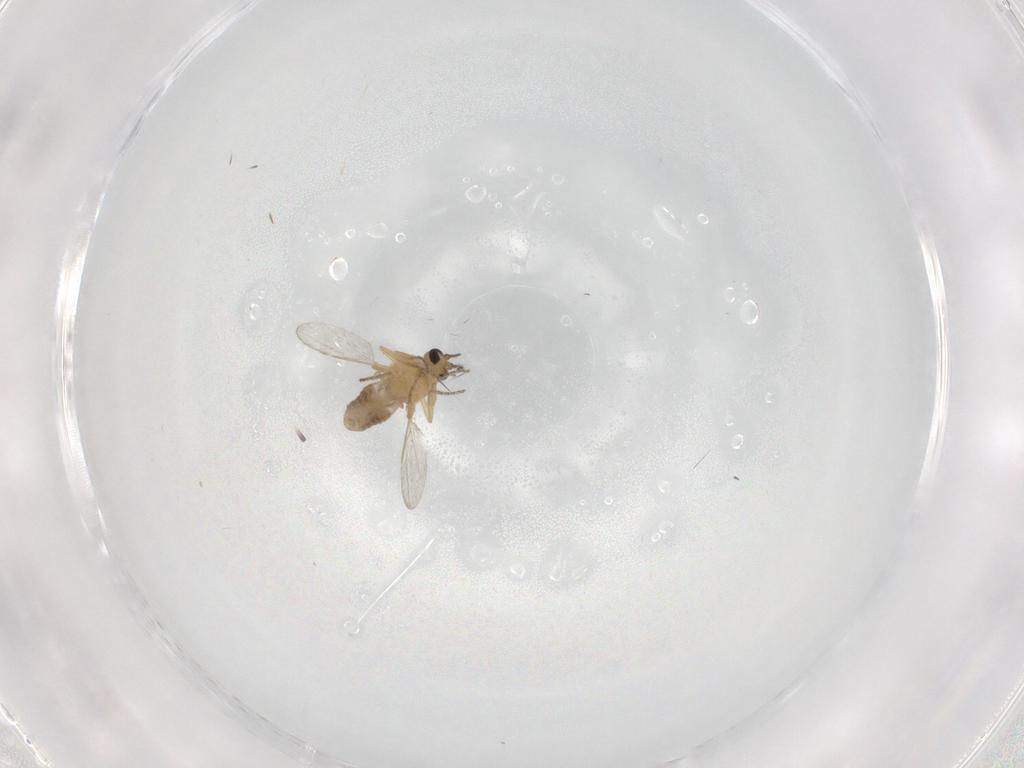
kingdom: Animalia
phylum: Arthropoda
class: Insecta
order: Diptera
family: Ceratopogonidae
